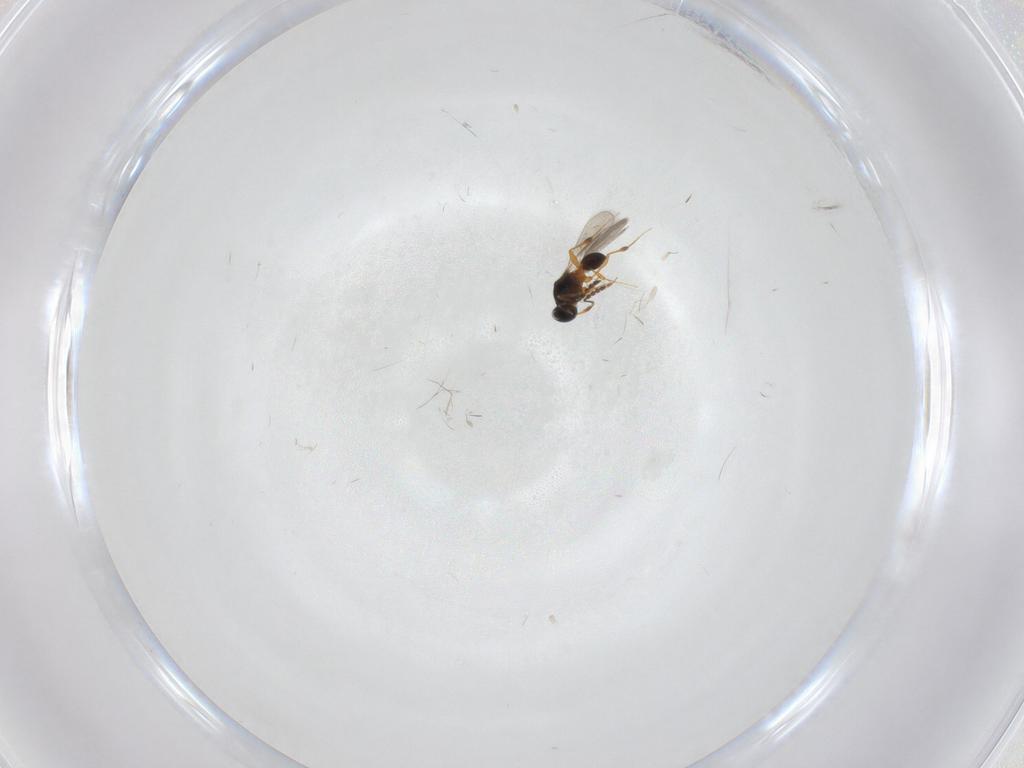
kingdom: Animalia
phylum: Arthropoda
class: Insecta
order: Hymenoptera
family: Platygastridae
